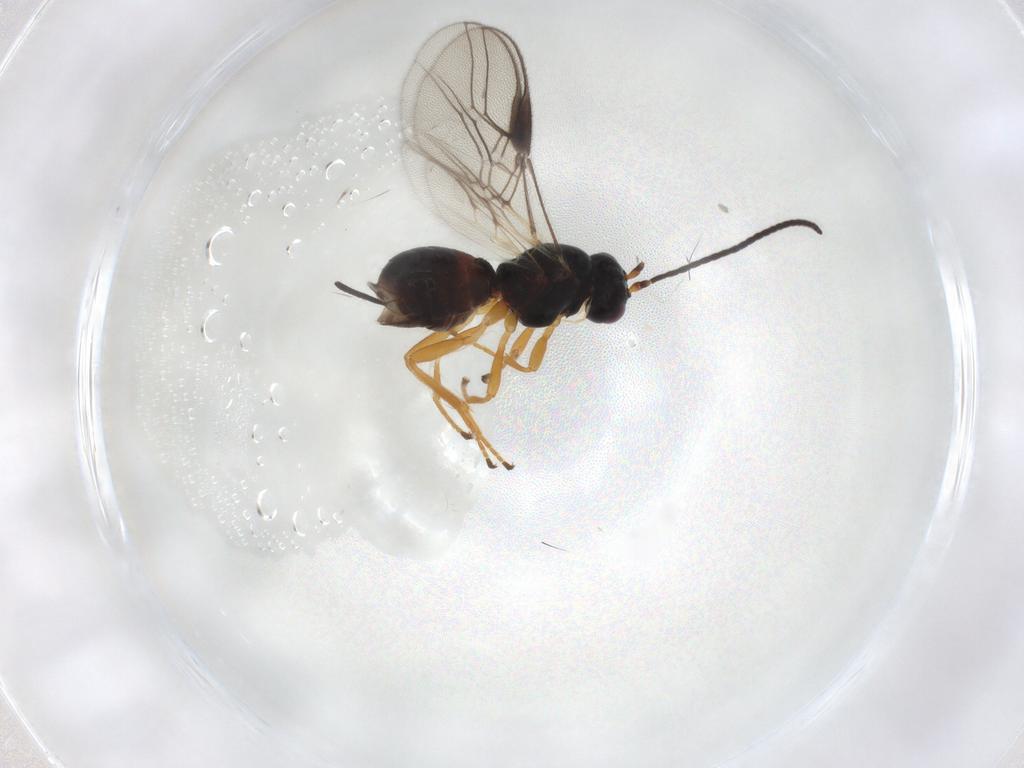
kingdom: Animalia
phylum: Arthropoda
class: Insecta
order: Hymenoptera
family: Braconidae
